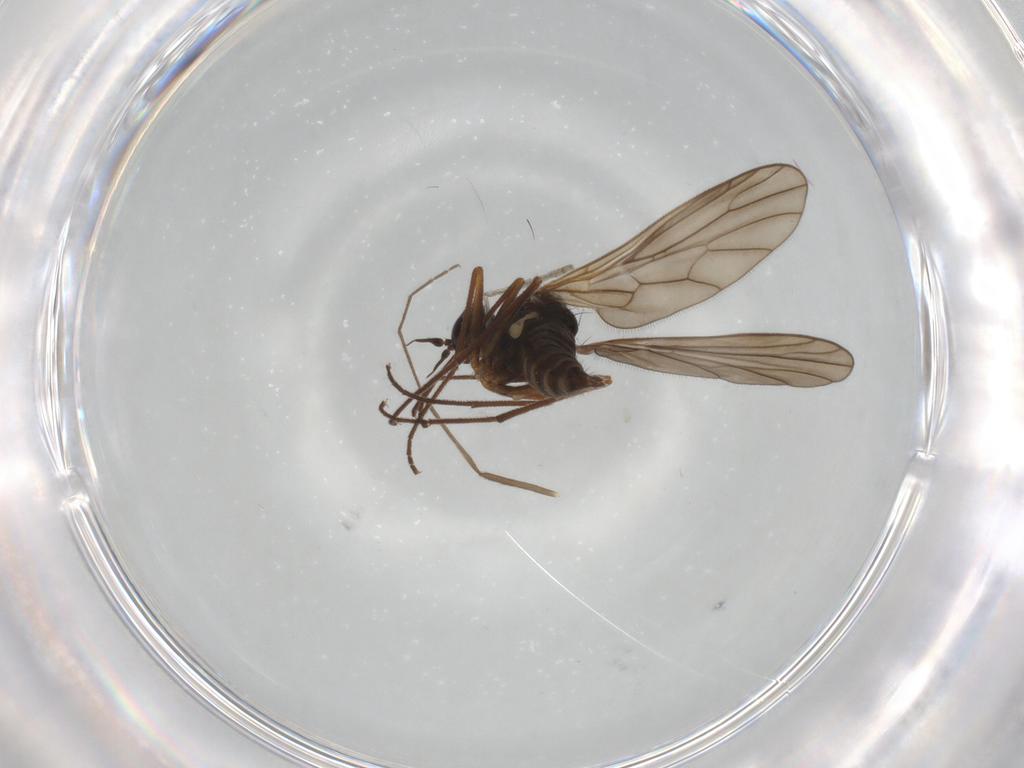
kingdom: Animalia
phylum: Arthropoda
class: Insecta
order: Diptera
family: Empididae
